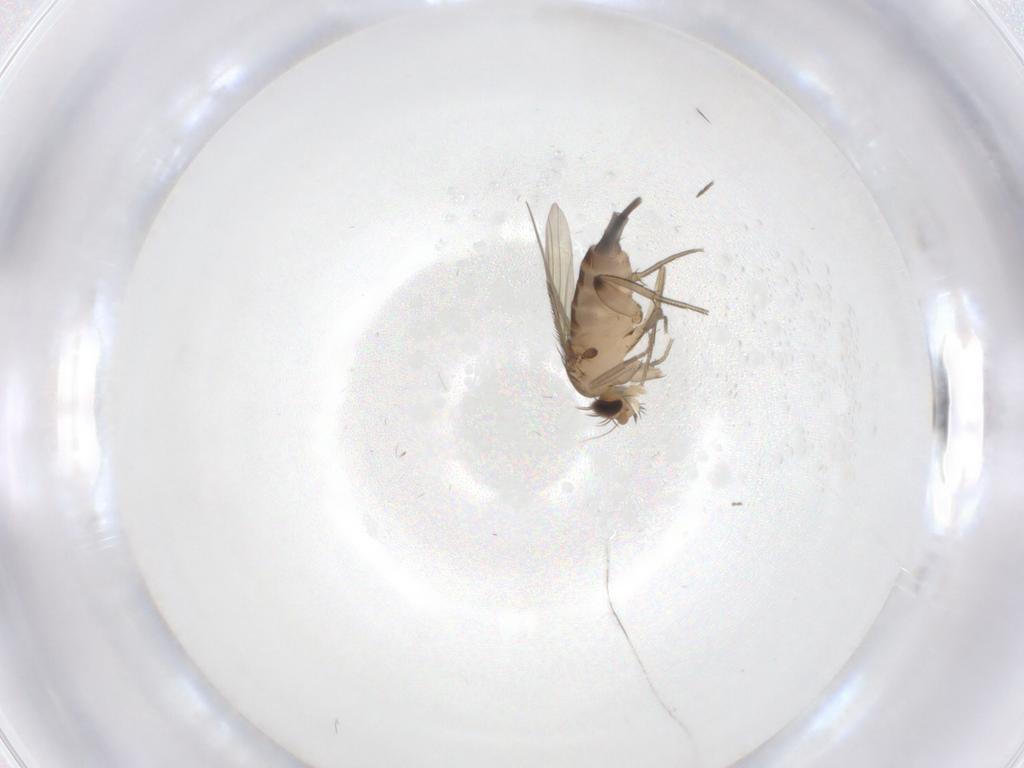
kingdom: Animalia
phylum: Arthropoda
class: Insecta
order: Diptera
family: Cecidomyiidae
